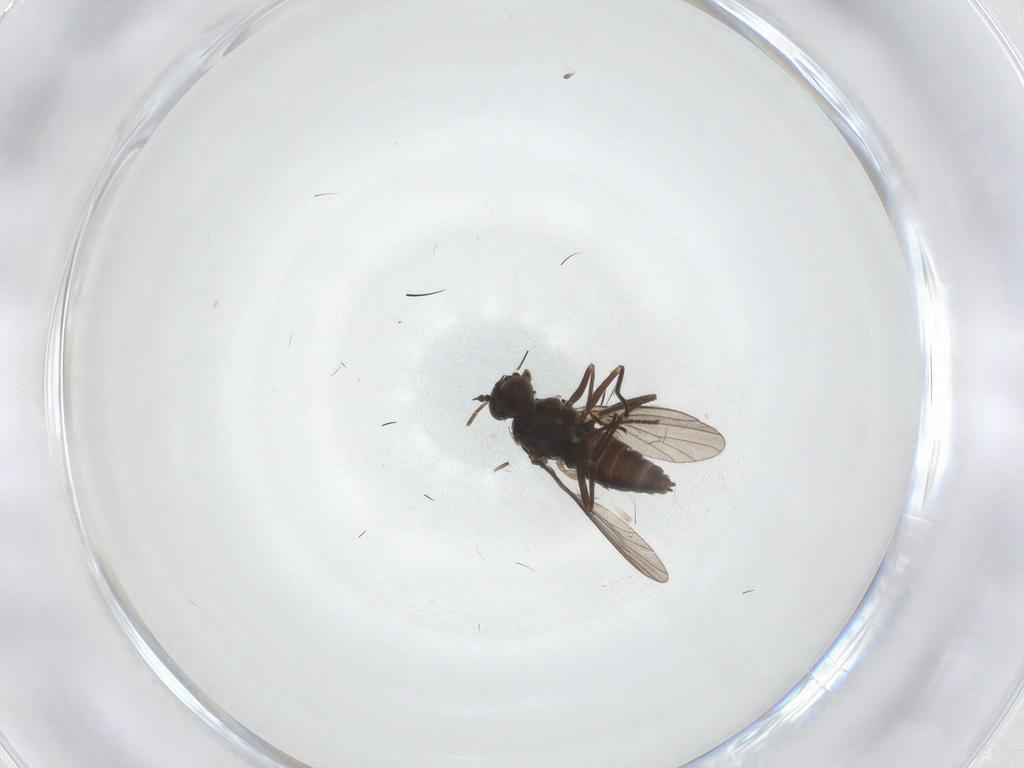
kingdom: Animalia
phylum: Arthropoda
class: Insecta
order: Diptera
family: Dolichopodidae
